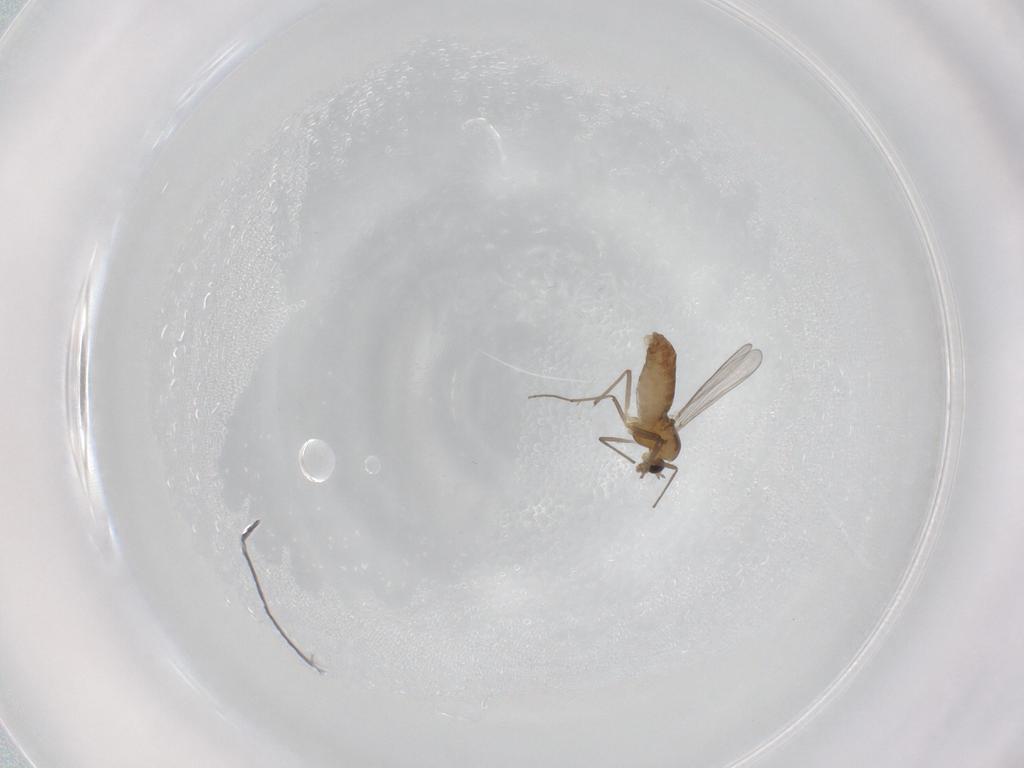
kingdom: Animalia
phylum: Arthropoda
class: Insecta
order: Diptera
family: Chironomidae
